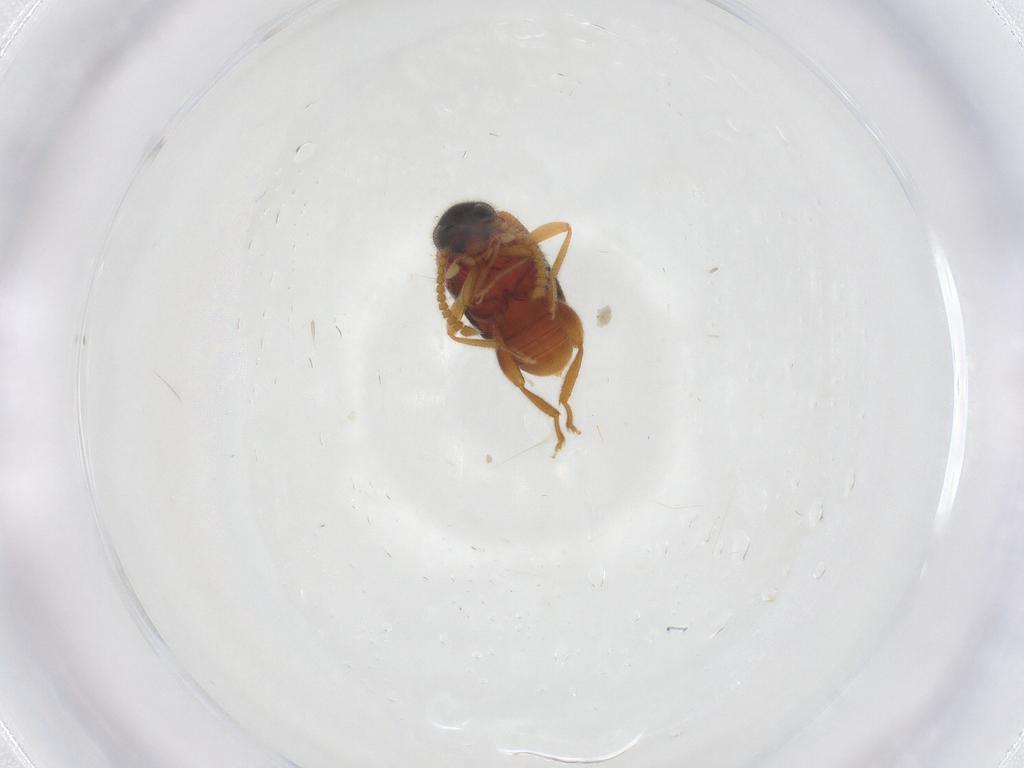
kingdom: Animalia
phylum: Arthropoda
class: Insecta
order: Coleoptera
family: Aderidae
